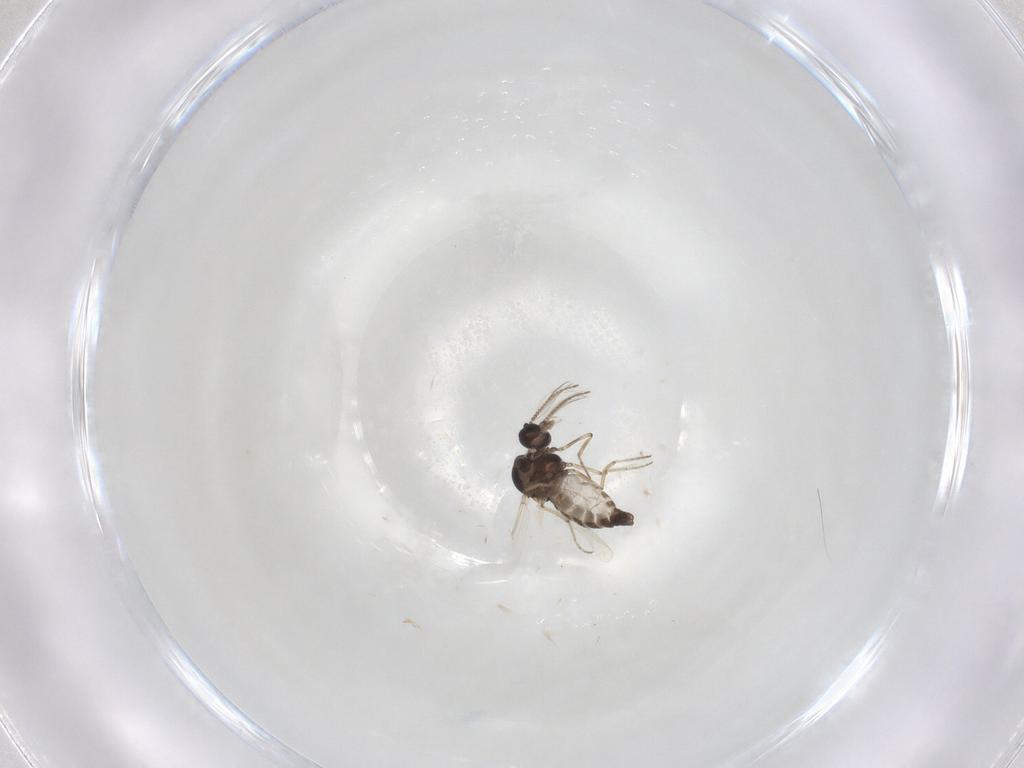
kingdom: Animalia
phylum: Arthropoda
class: Insecta
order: Diptera
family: Ceratopogonidae
